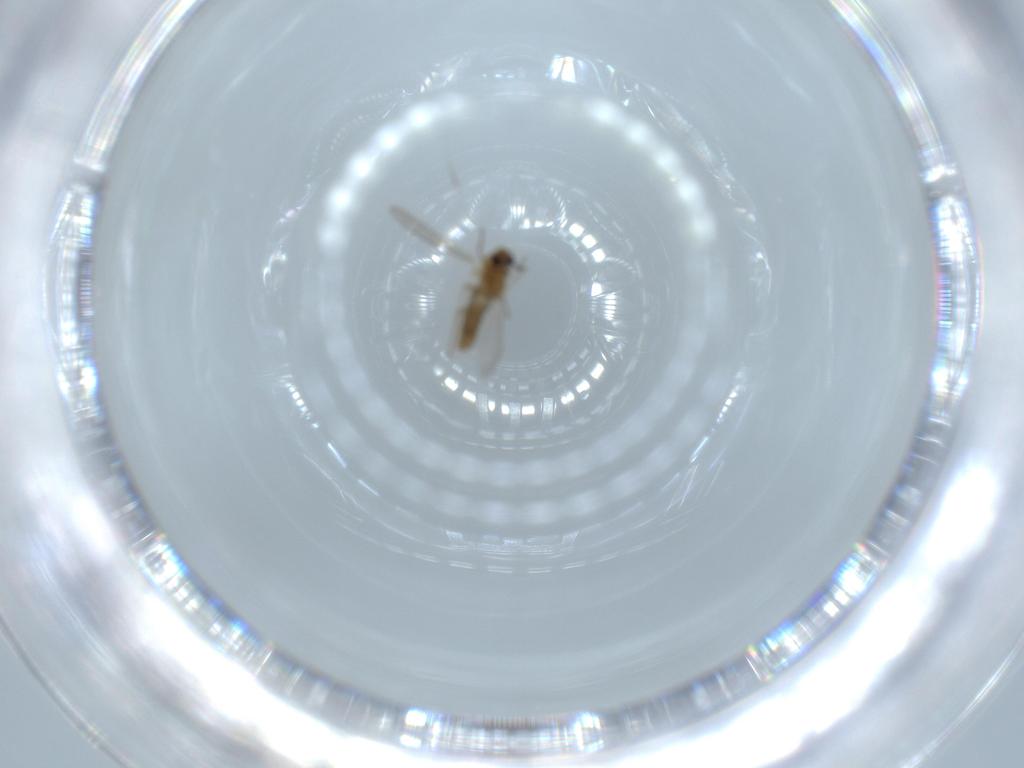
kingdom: Animalia
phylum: Arthropoda
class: Insecta
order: Diptera
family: Chironomidae
